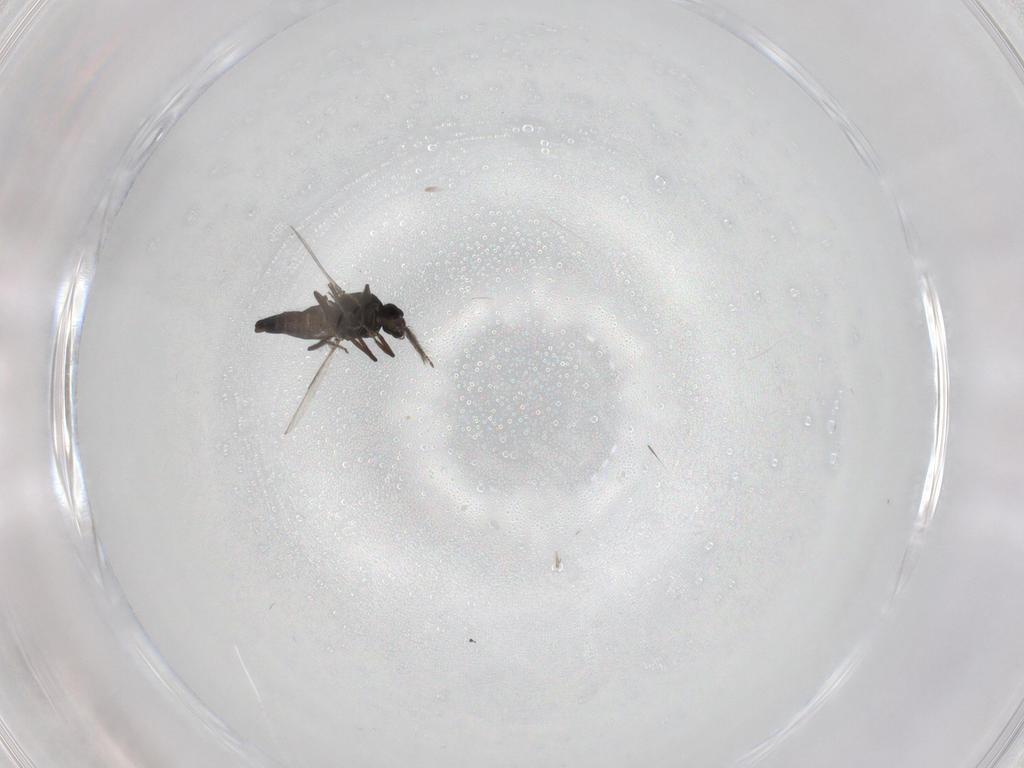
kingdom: Animalia
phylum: Arthropoda
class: Insecta
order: Diptera
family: Ceratopogonidae
